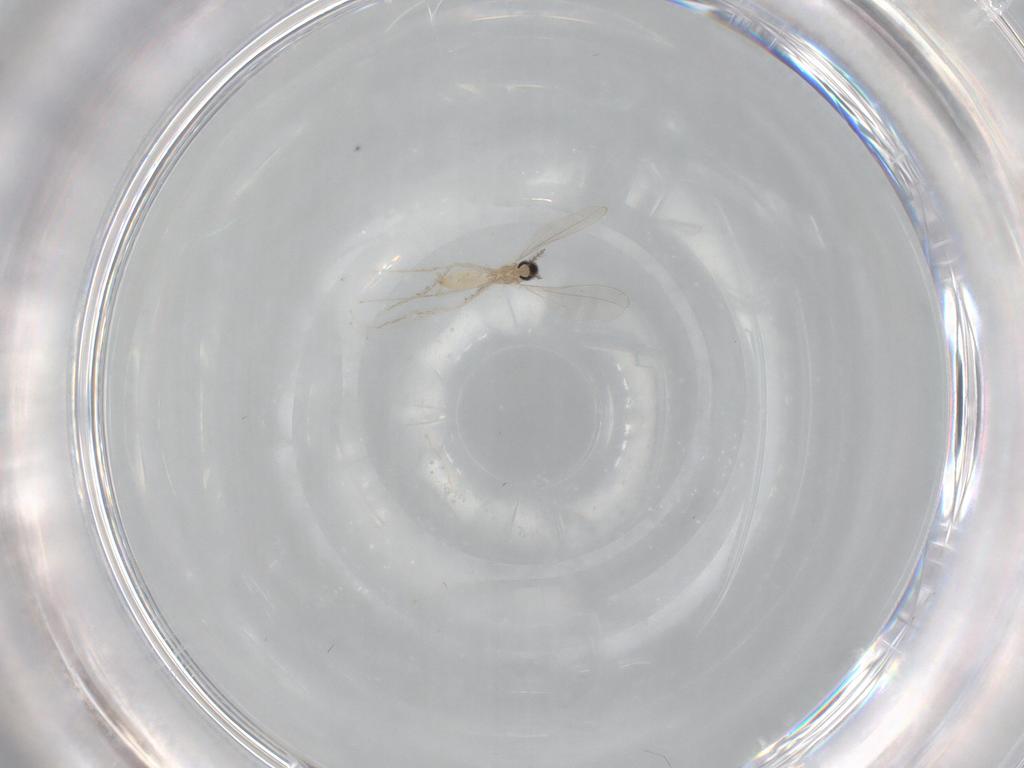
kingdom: Animalia
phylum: Arthropoda
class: Insecta
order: Diptera
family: Cecidomyiidae
